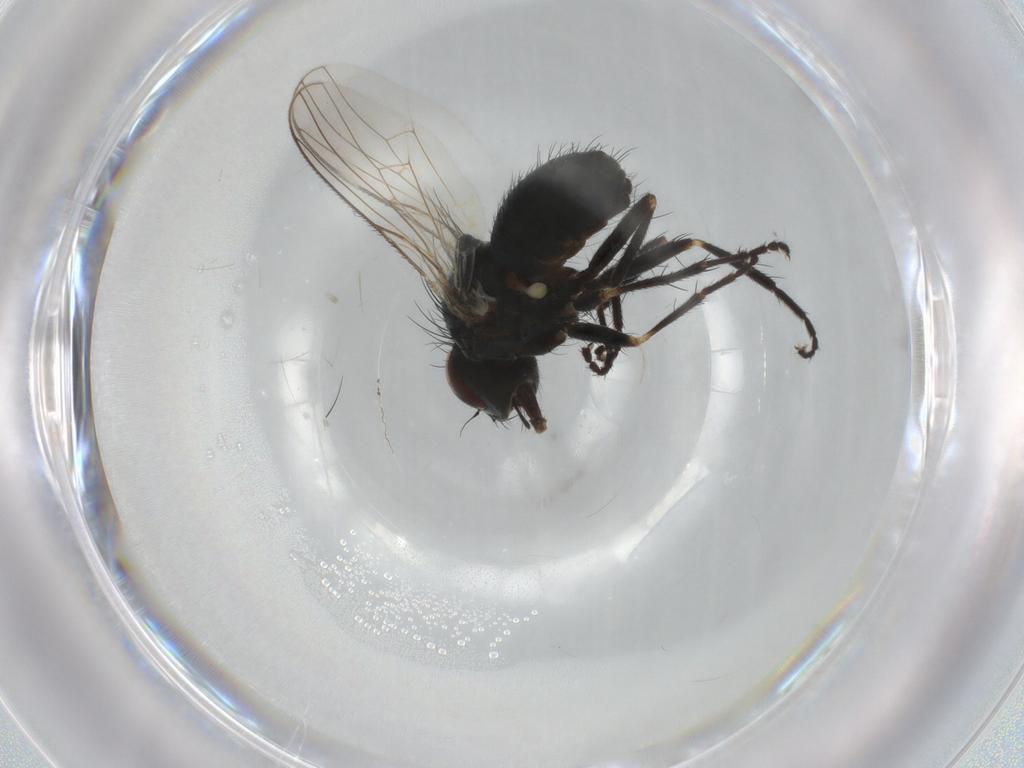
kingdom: Animalia
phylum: Arthropoda
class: Insecta
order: Diptera
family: Muscidae
